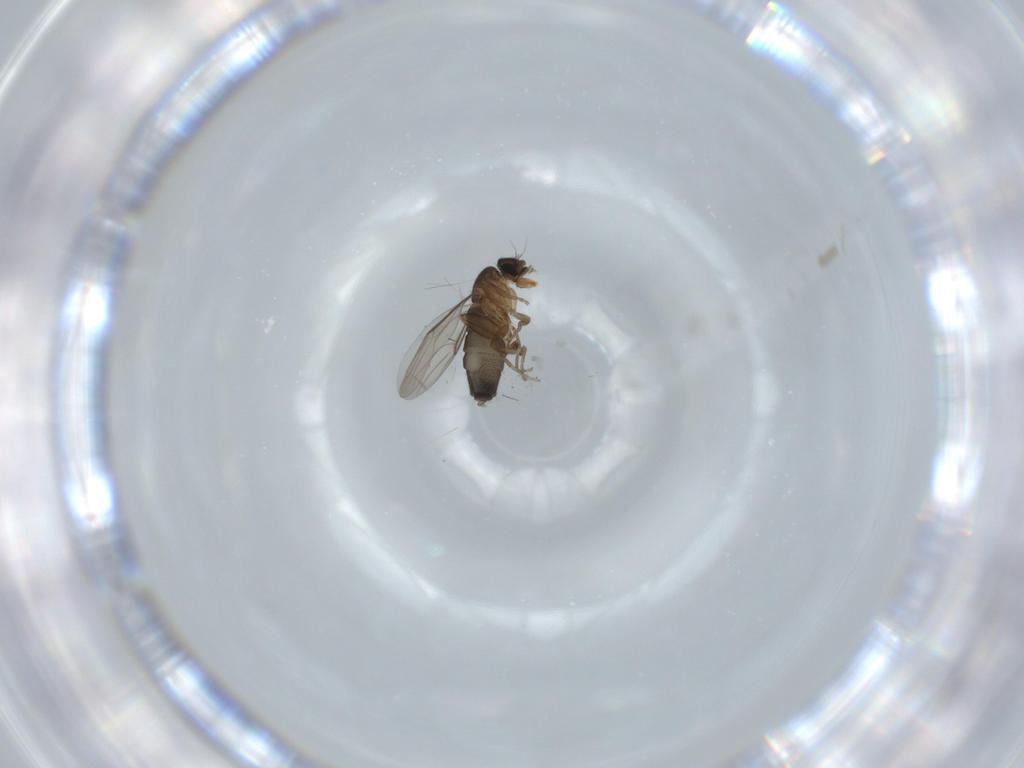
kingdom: Animalia
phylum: Arthropoda
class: Insecta
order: Diptera
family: Phoridae
